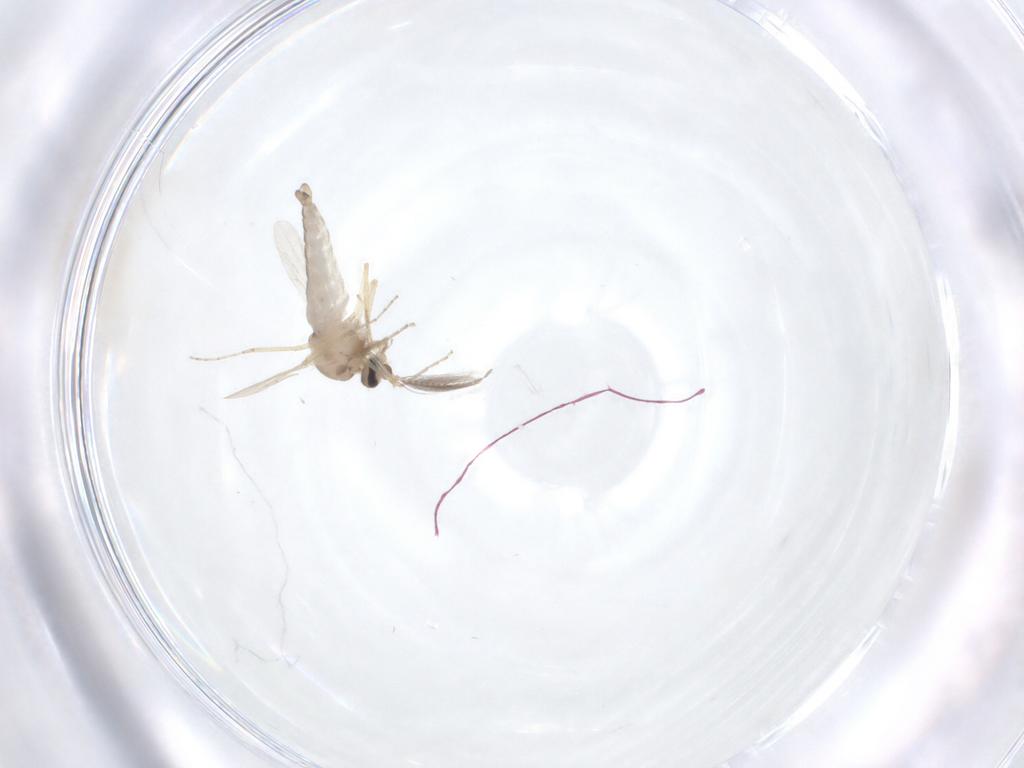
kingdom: Animalia
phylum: Arthropoda
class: Insecta
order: Diptera
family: Ceratopogonidae
